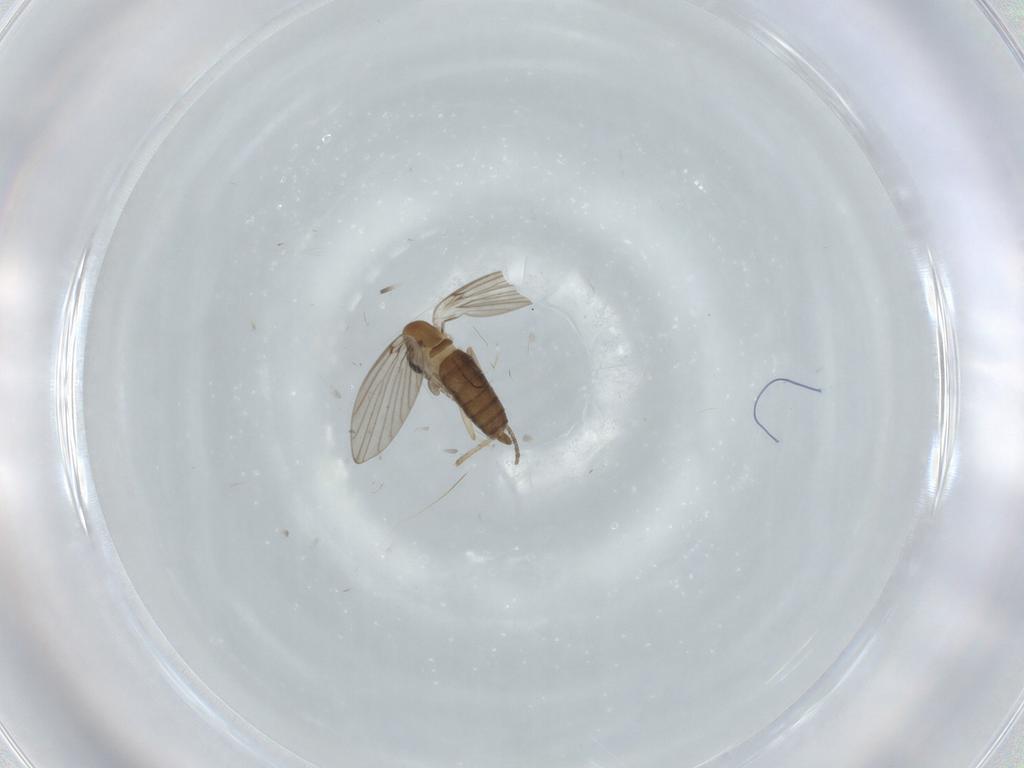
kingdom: Animalia
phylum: Arthropoda
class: Insecta
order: Diptera
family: Psychodidae
